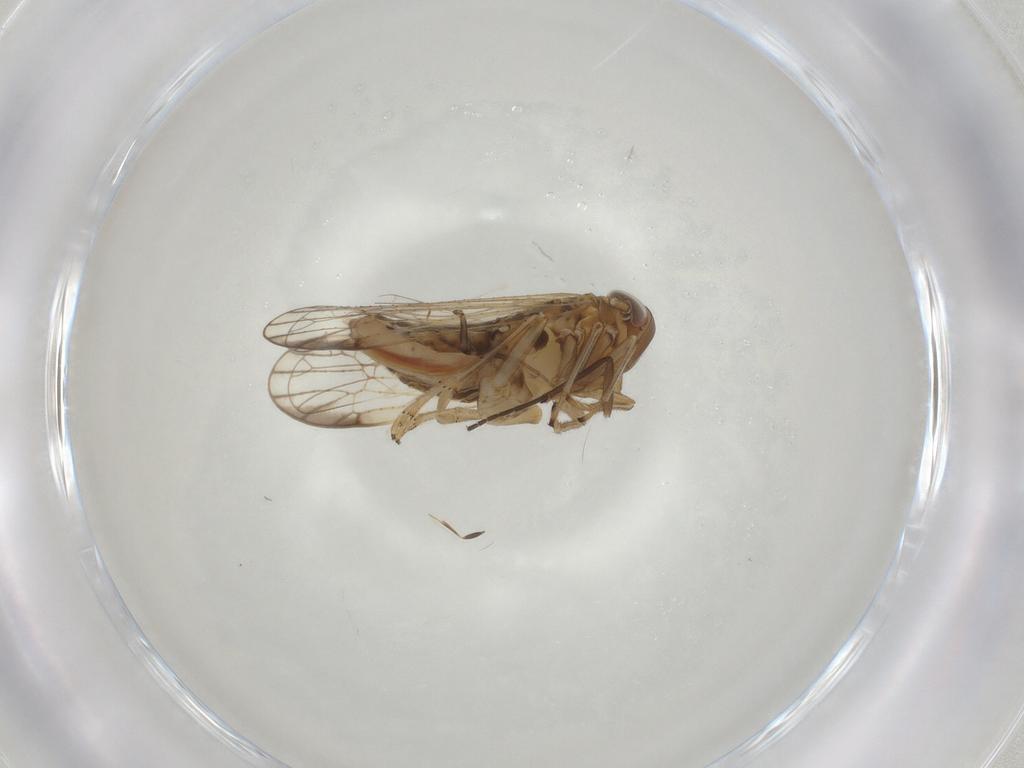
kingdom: Animalia
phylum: Arthropoda
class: Insecta
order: Hemiptera
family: Delphacidae
